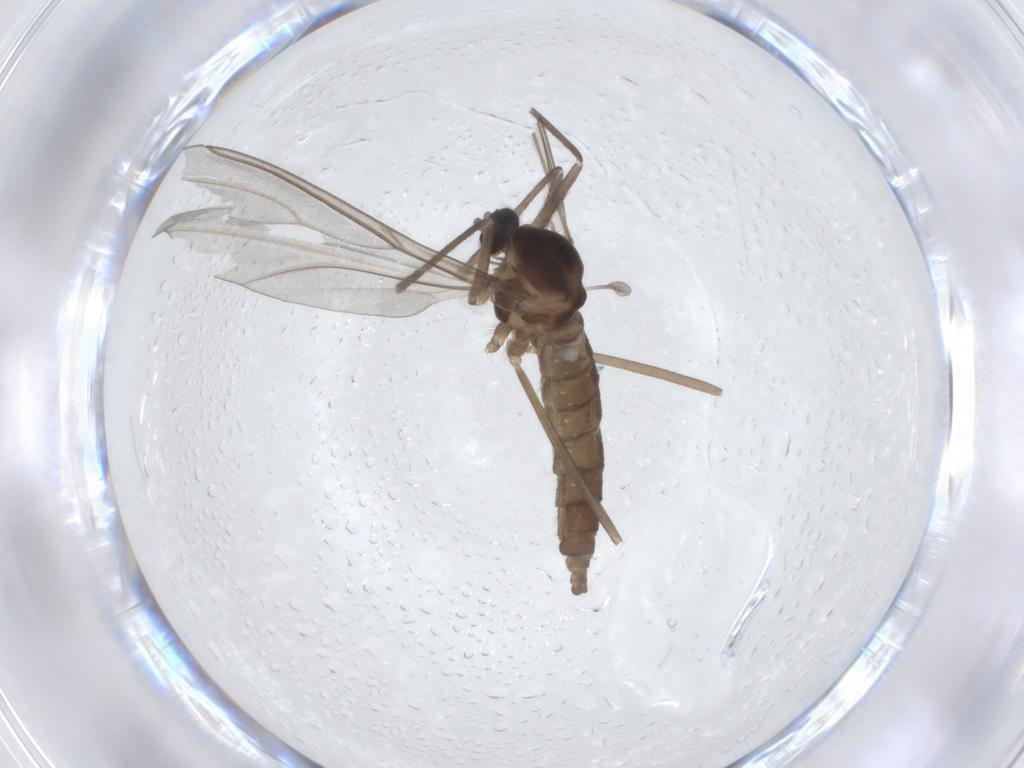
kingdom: Animalia
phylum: Arthropoda
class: Insecta
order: Diptera
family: Cecidomyiidae
